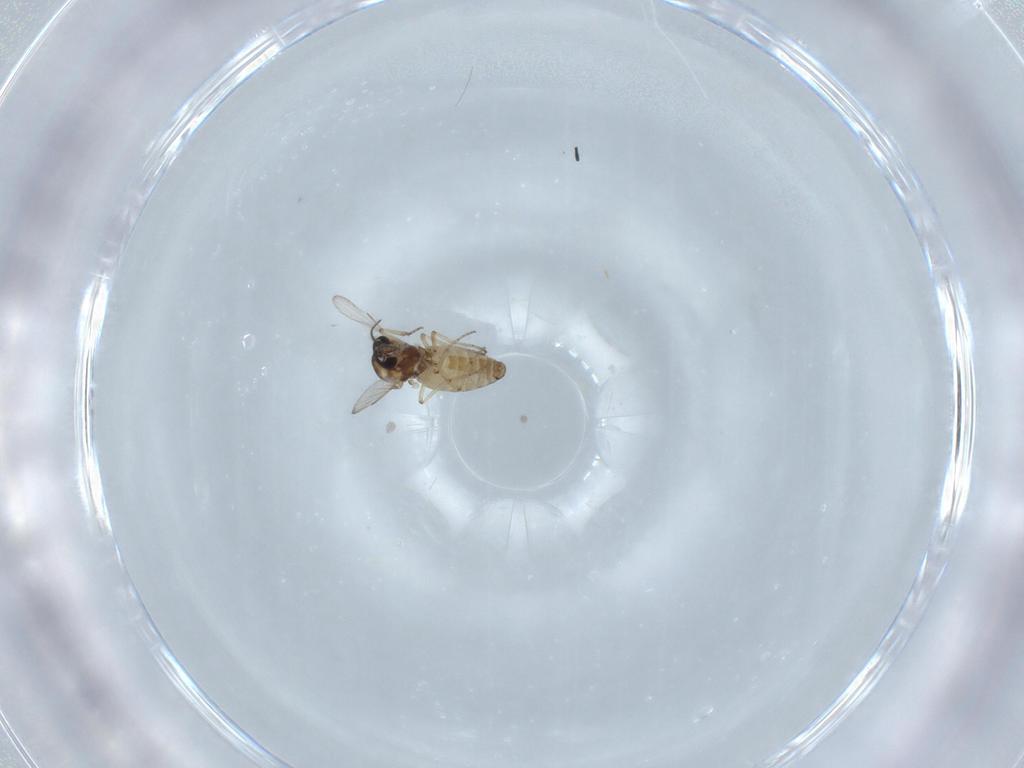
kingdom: Animalia
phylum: Arthropoda
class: Insecta
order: Diptera
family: Ceratopogonidae
